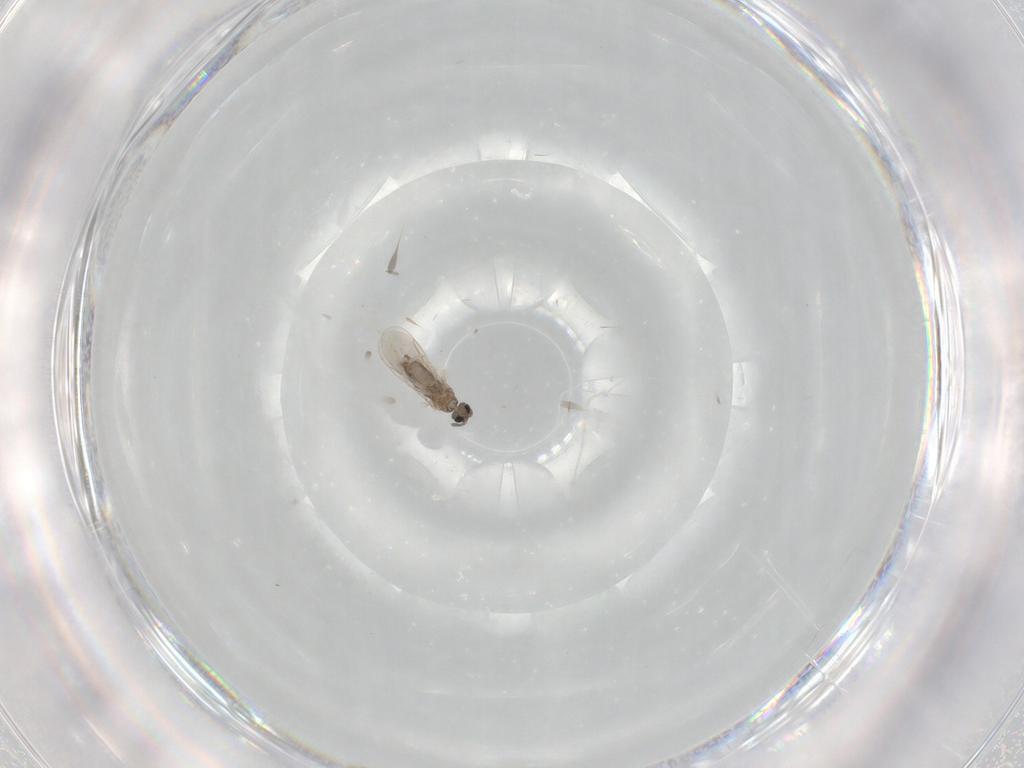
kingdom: Animalia
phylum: Arthropoda
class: Insecta
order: Diptera
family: Cecidomyiidae
